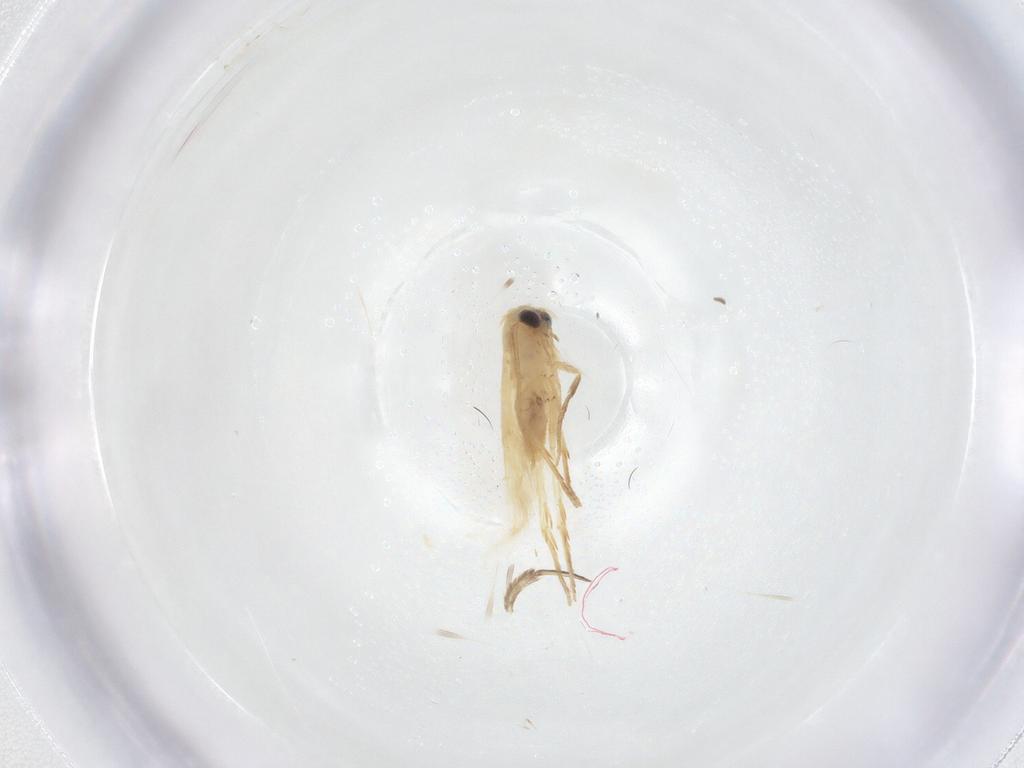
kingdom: Animalia
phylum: Arthropoda
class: Insecta
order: Lepidoptera
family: Nepticulidae
